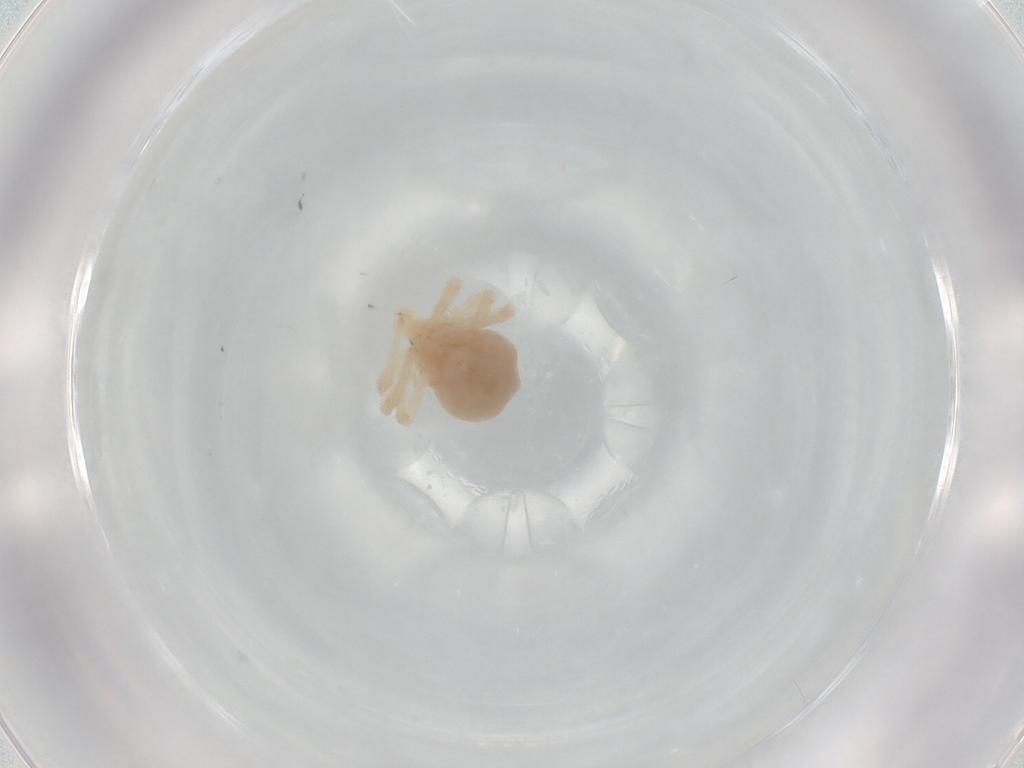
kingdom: Animalia
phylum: Arthropoda
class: Arachnida
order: Trombidiformes
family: Anystidae
